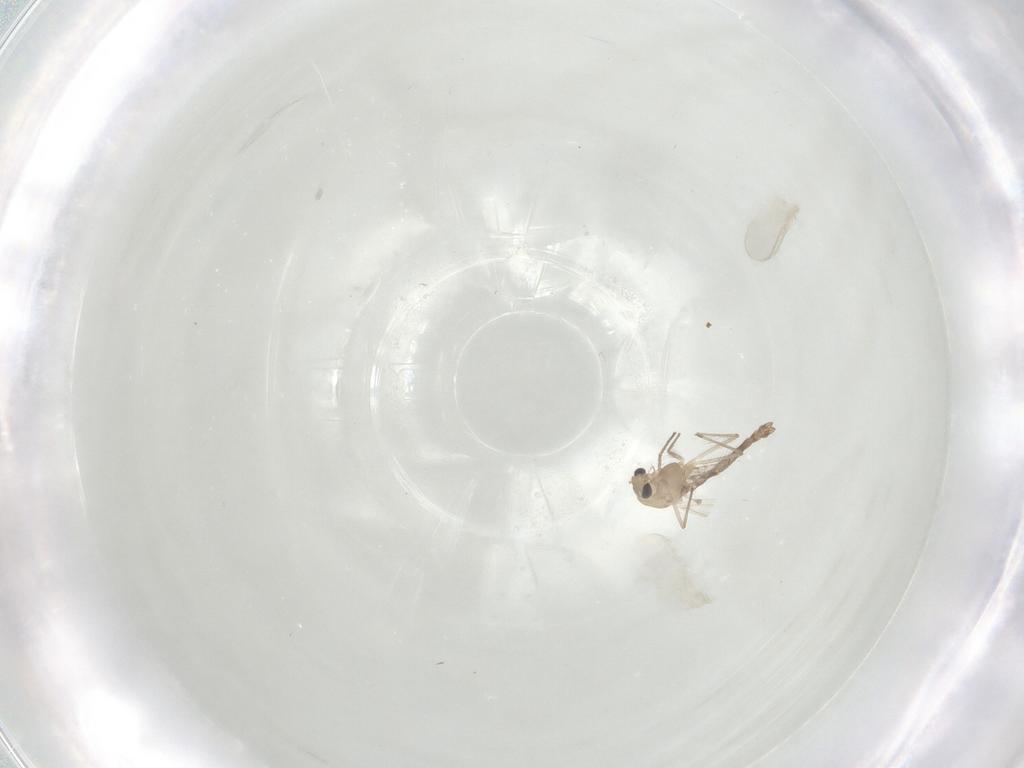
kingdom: Animalia
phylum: Arthropoda
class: Insecta
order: Diptera
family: Chironomidae
